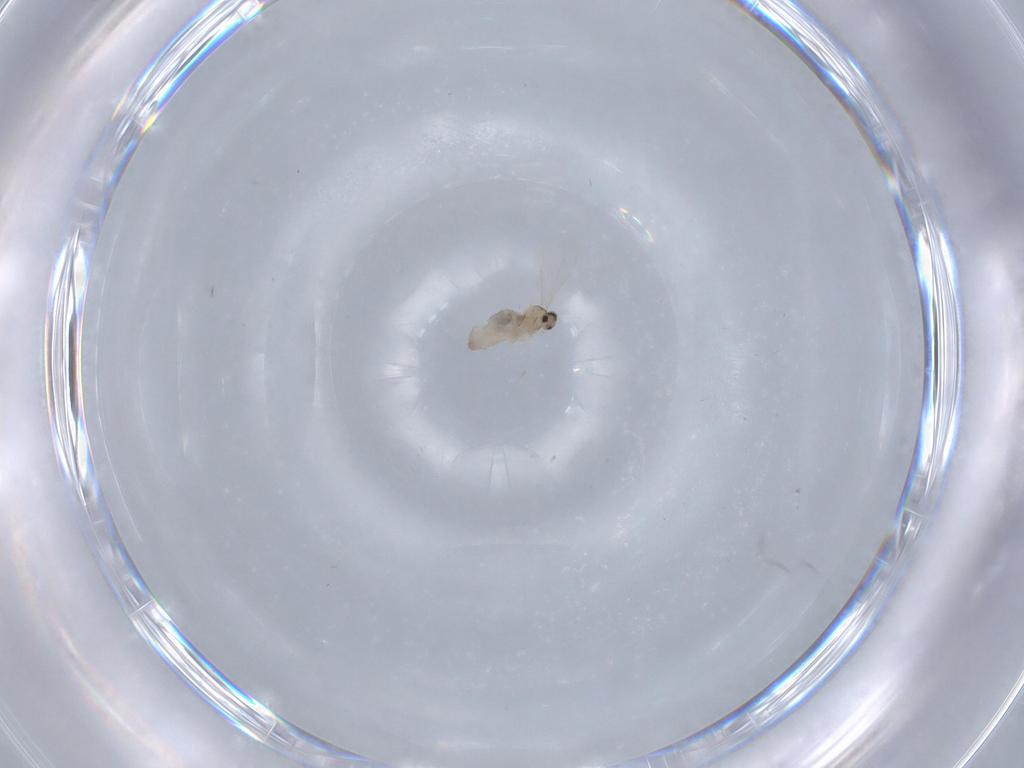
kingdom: Animalia
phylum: Arthropoda
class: Insecta
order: Diptera
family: Cecidomyiidae
